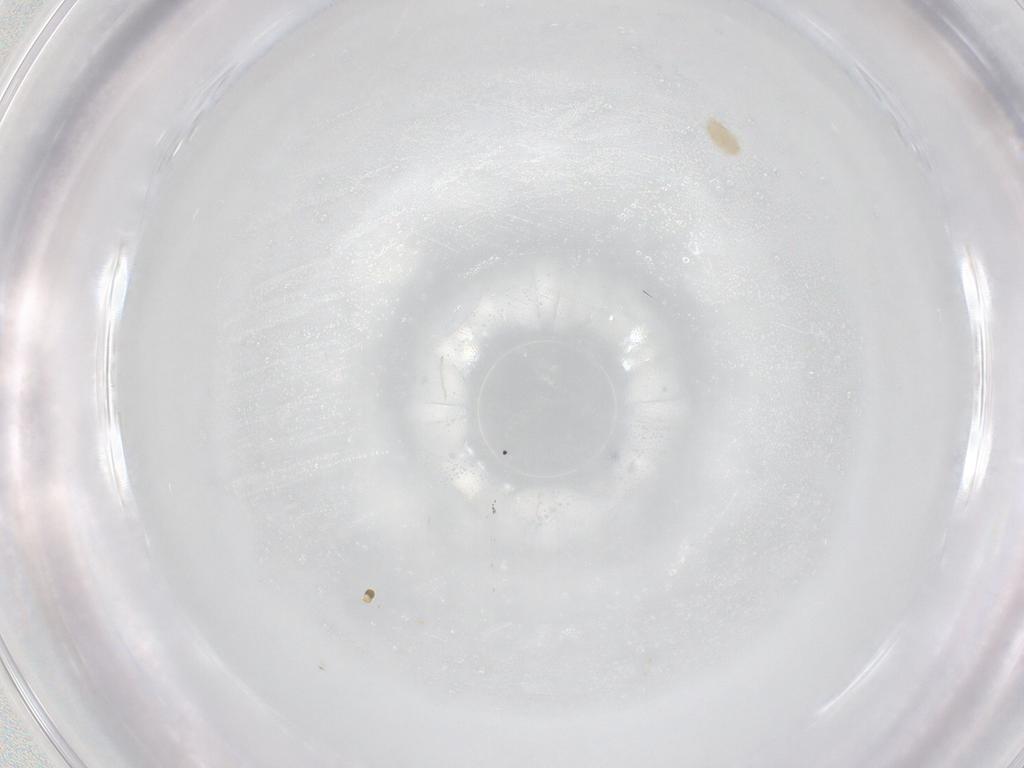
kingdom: Animalia
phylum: Arthropoda
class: Arachnida
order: Trombidiformes
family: Eupodidae
